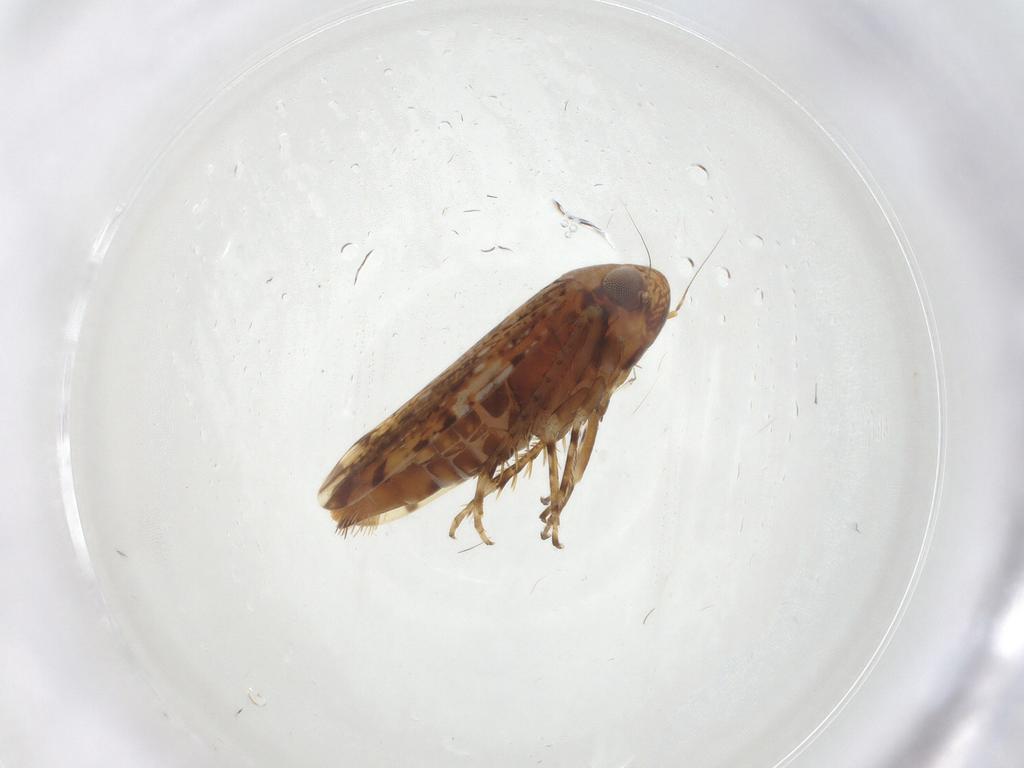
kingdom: Animalia
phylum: Arthropoda
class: Insecta
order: Hemiptera
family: Cicadellidae
